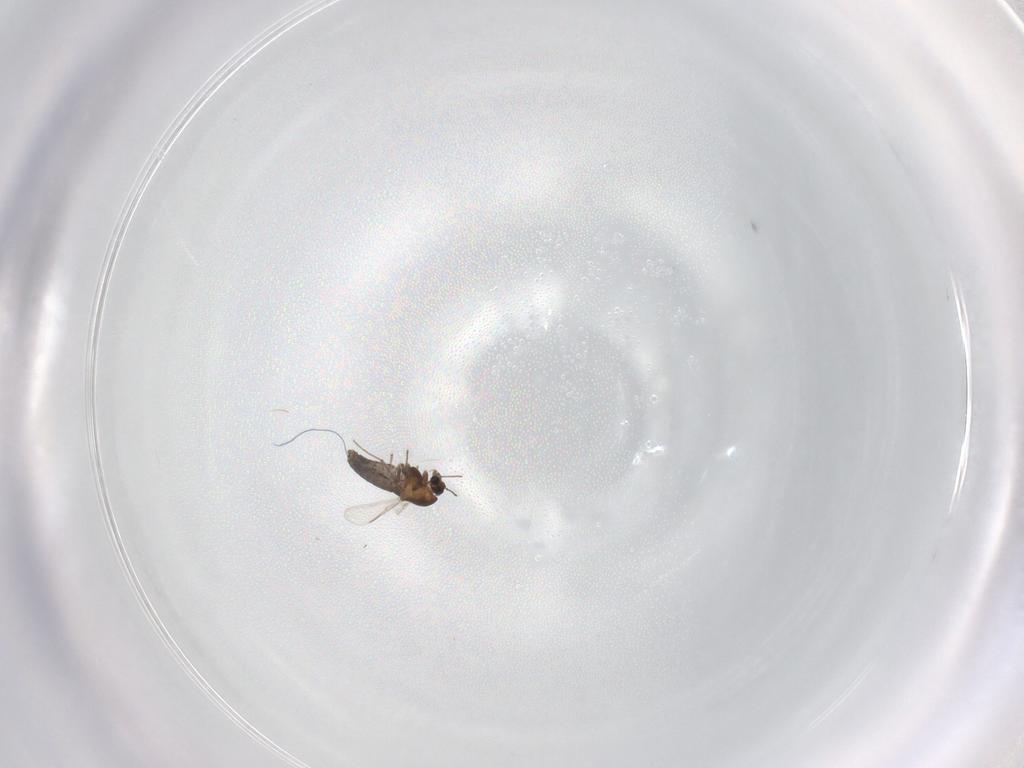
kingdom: Animalia
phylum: Arthropoda
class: Insecta
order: Diptera
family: Chironomidae
